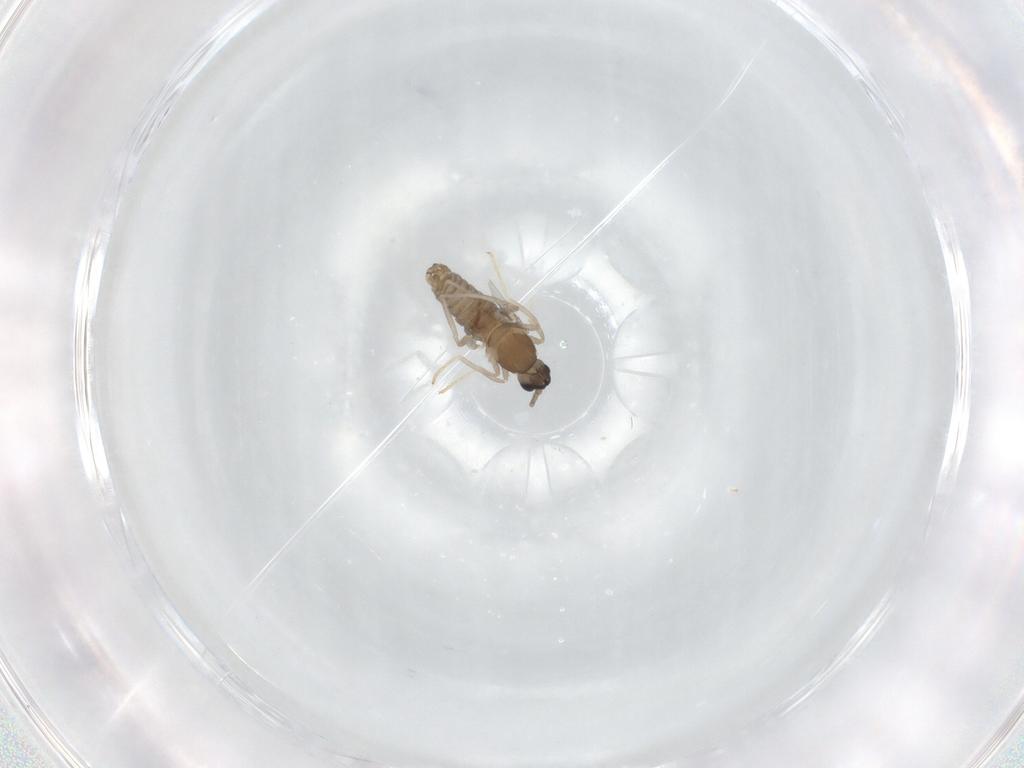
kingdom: Animalia
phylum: Arthropoda
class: Insecta
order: Diptera
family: Cecidomyiidae
